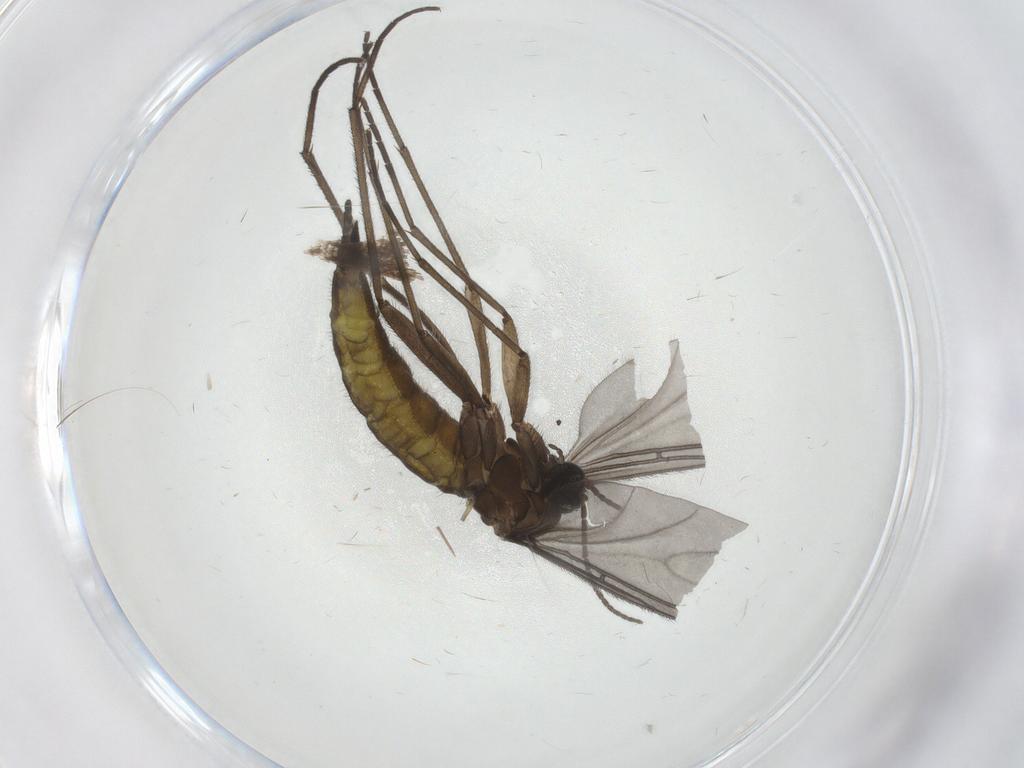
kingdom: Animalia
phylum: Arthropoda
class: Insecta
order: Diptera
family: Sciaridae
